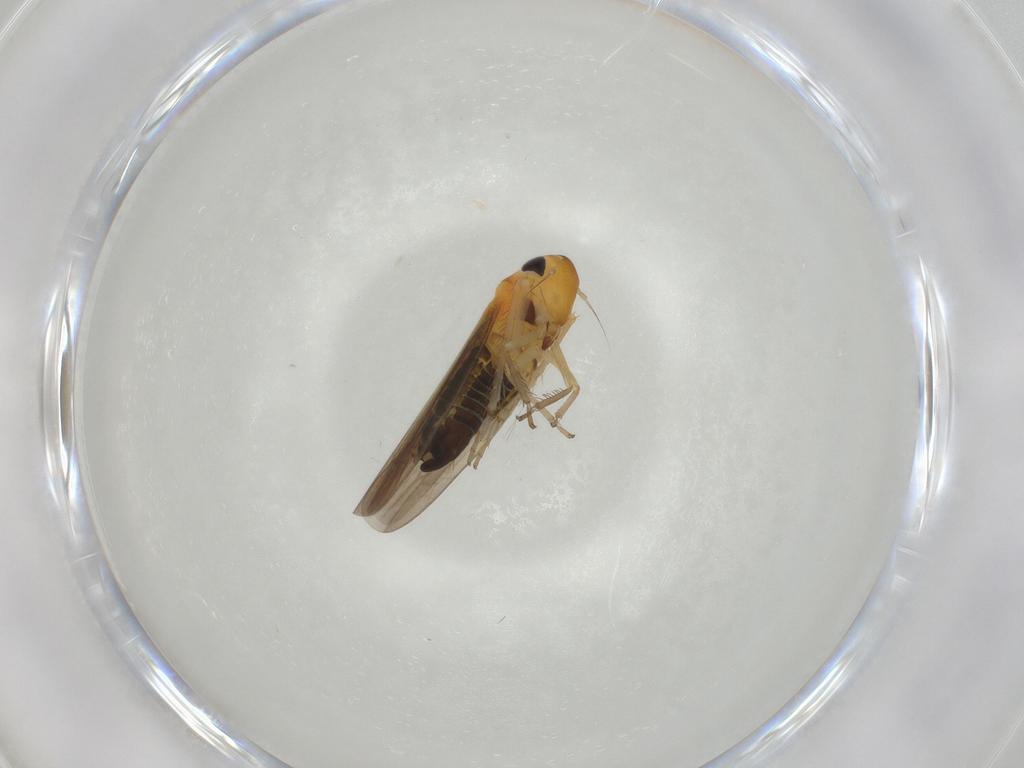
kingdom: Animalia
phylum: Arthropoda
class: Insecta
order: Hemiptera
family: Cicadellidae
